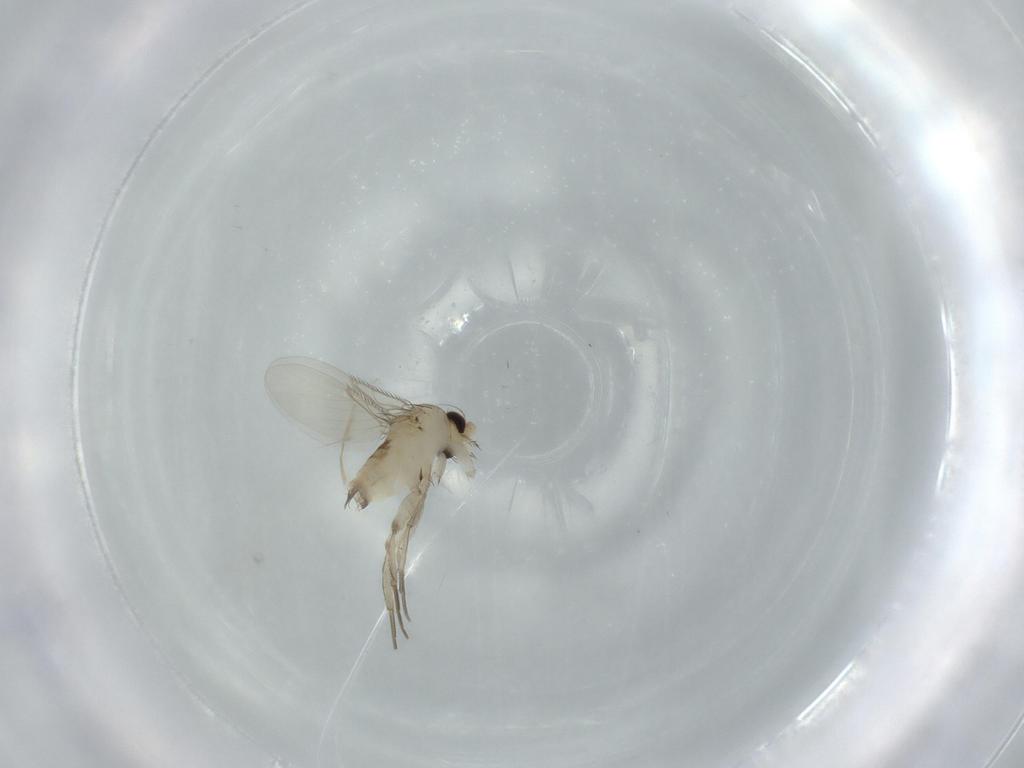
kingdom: Animalia
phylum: Arthropoda
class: Insecta
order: Diptera
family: Phoridae
